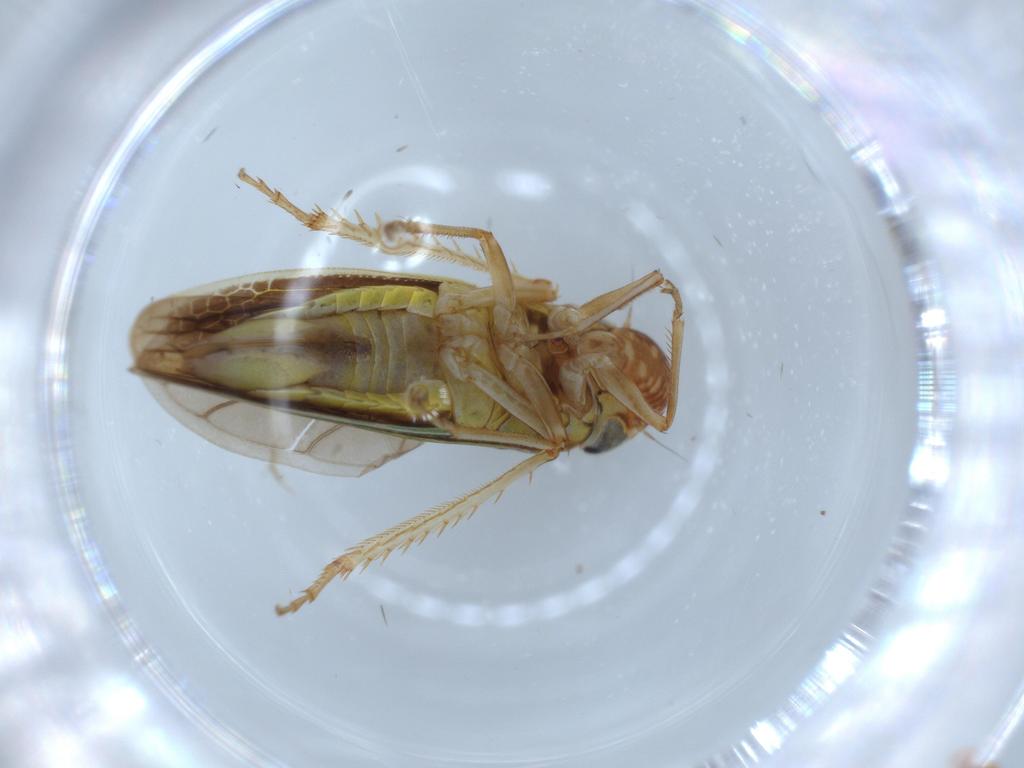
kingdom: Animalia
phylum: Arthropoda
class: Insecta
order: Hemiptera
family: Cicadellidae
